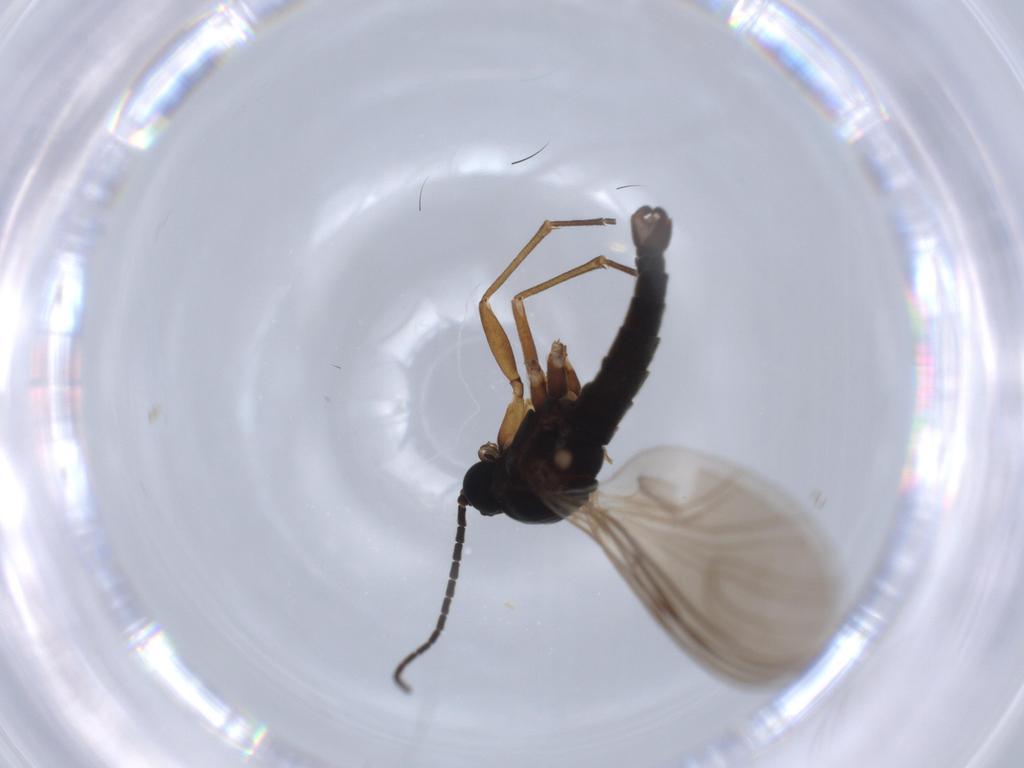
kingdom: Animalia
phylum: Arthropoda
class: Insecta
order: Diptera
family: Sciaridae
